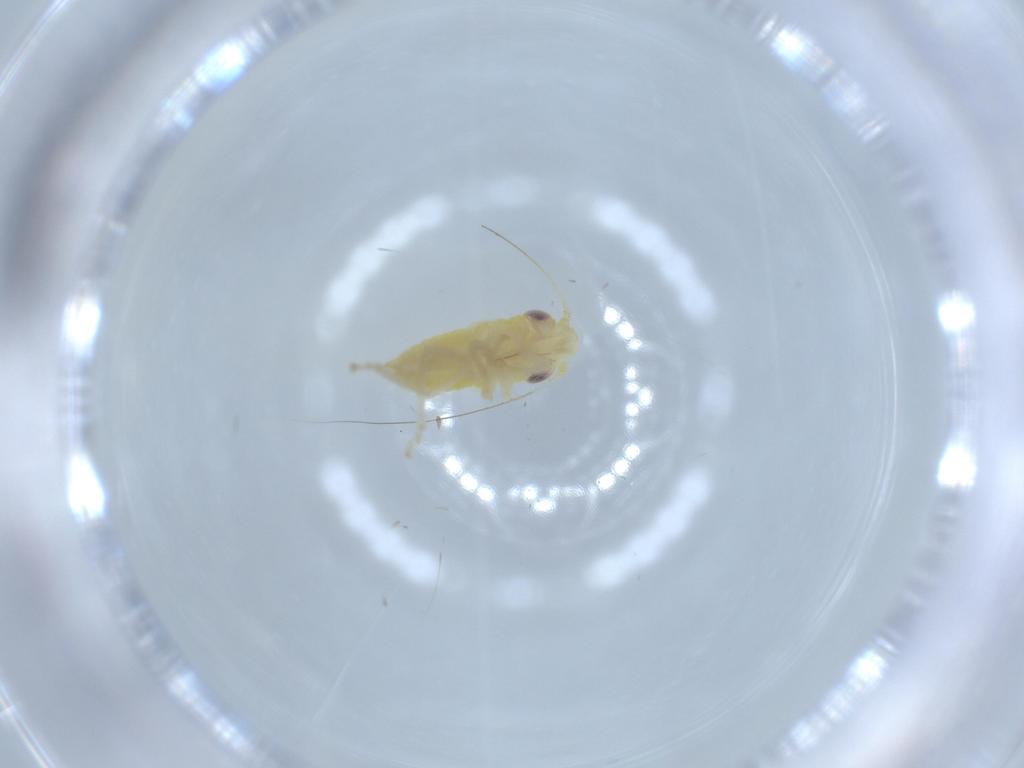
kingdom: Animalia
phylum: Arthropoda
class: Insecta
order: Hemiptera
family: Cicadellidae
